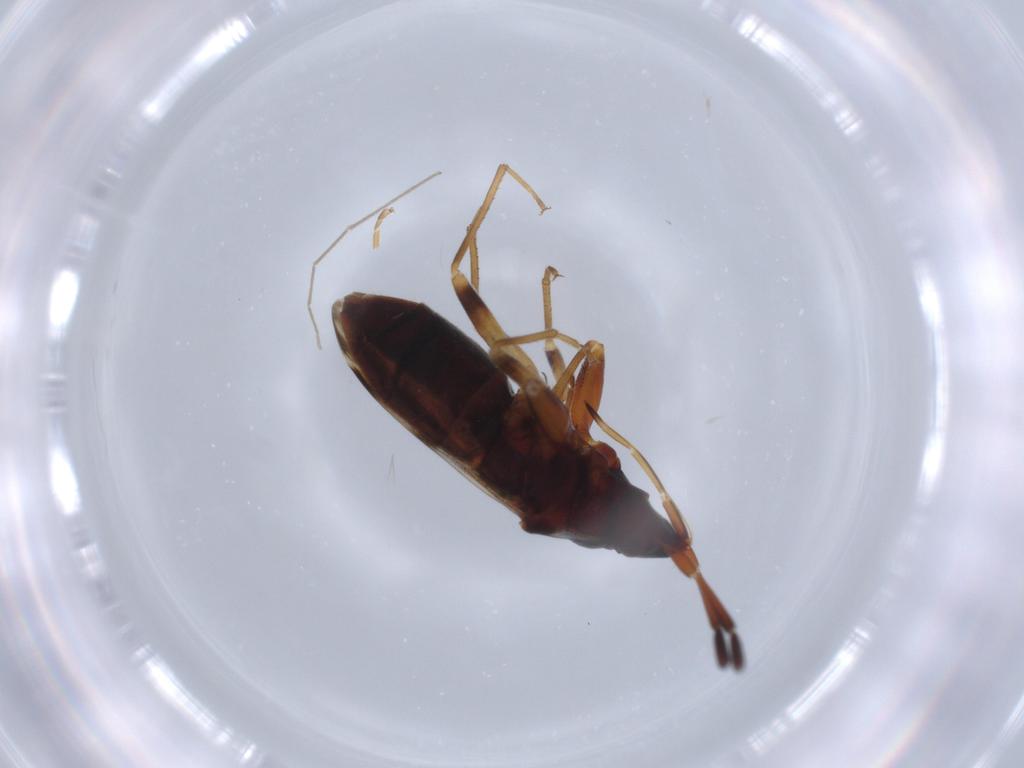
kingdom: Animalia
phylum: Arthropoda
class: Insecta
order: Hemiptera
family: Rhyparochromidae
